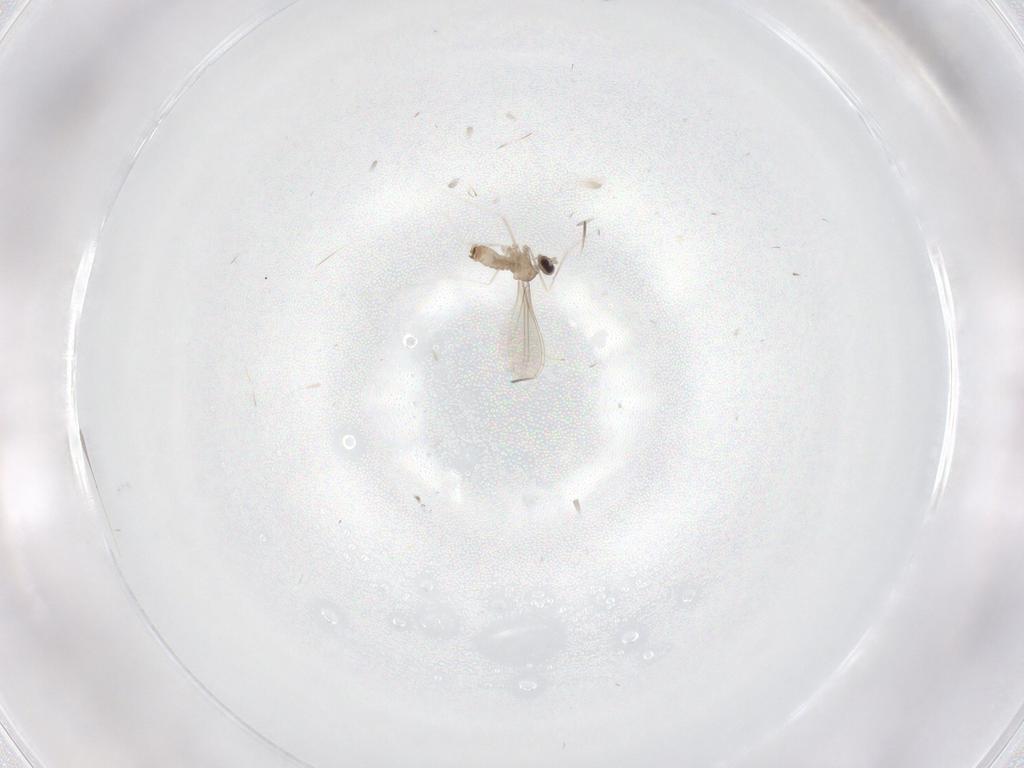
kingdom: Animalia
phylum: Arthropoda
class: Insecta
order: Diptera
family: Cecidomyiidae
